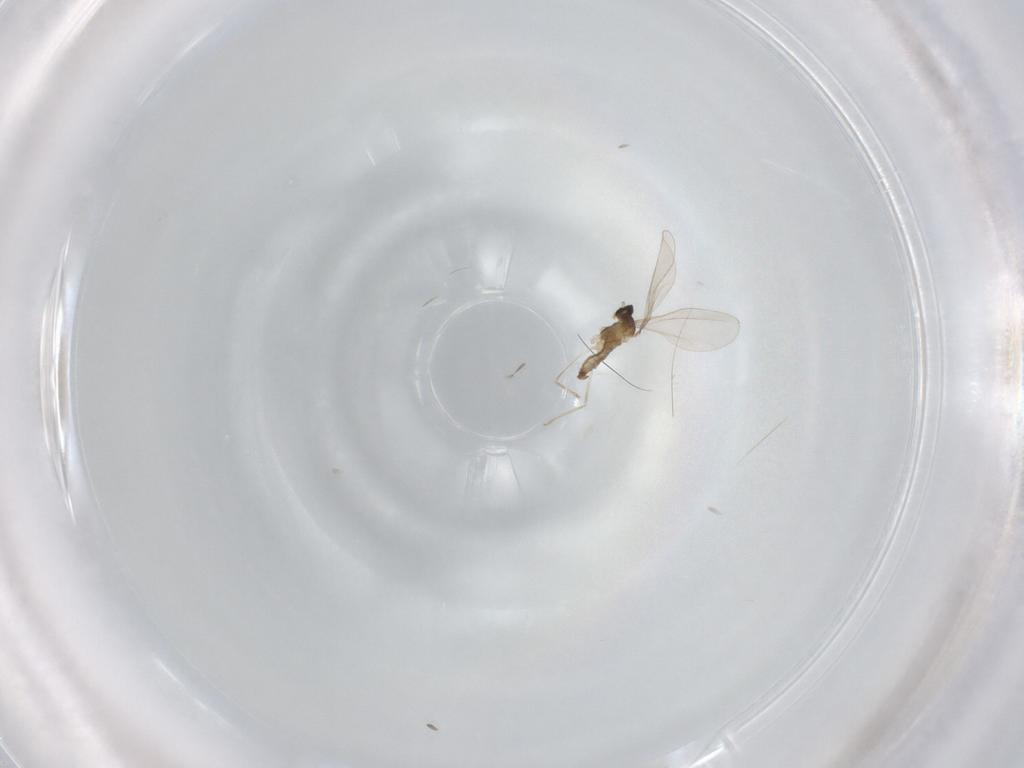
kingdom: Animalia
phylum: Arthropoda
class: Insecta
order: Diptera
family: Cecidomyiidae
